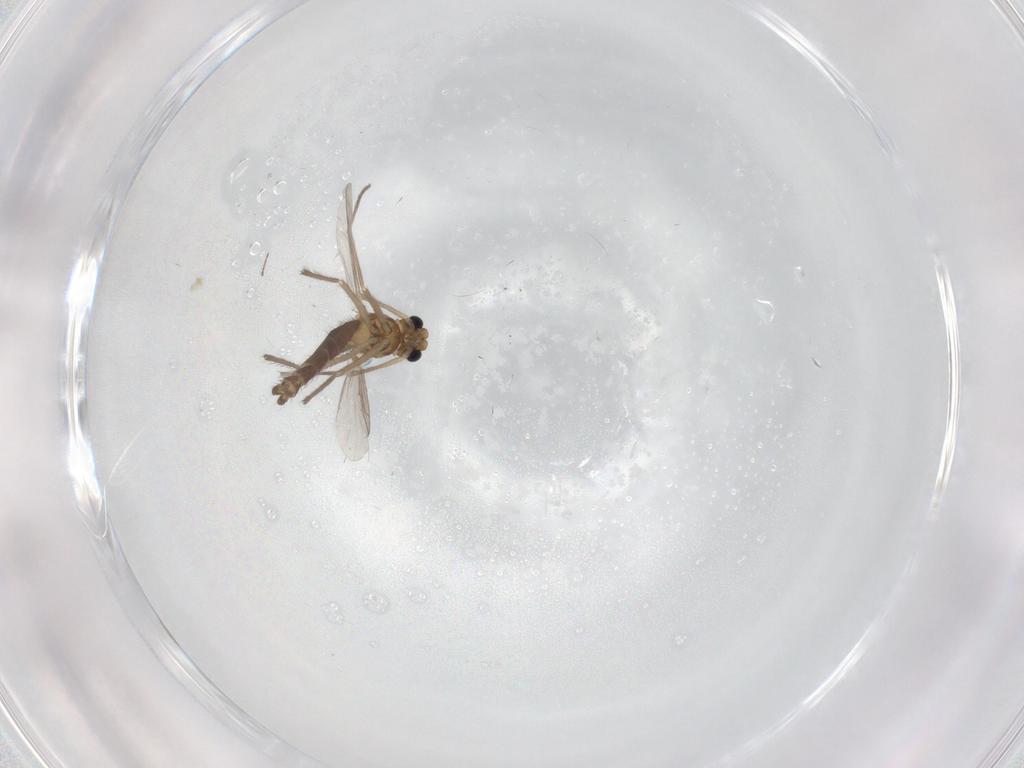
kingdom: Animalia
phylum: Arthropoda
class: Insecta
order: Diptera
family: Chironomidae
